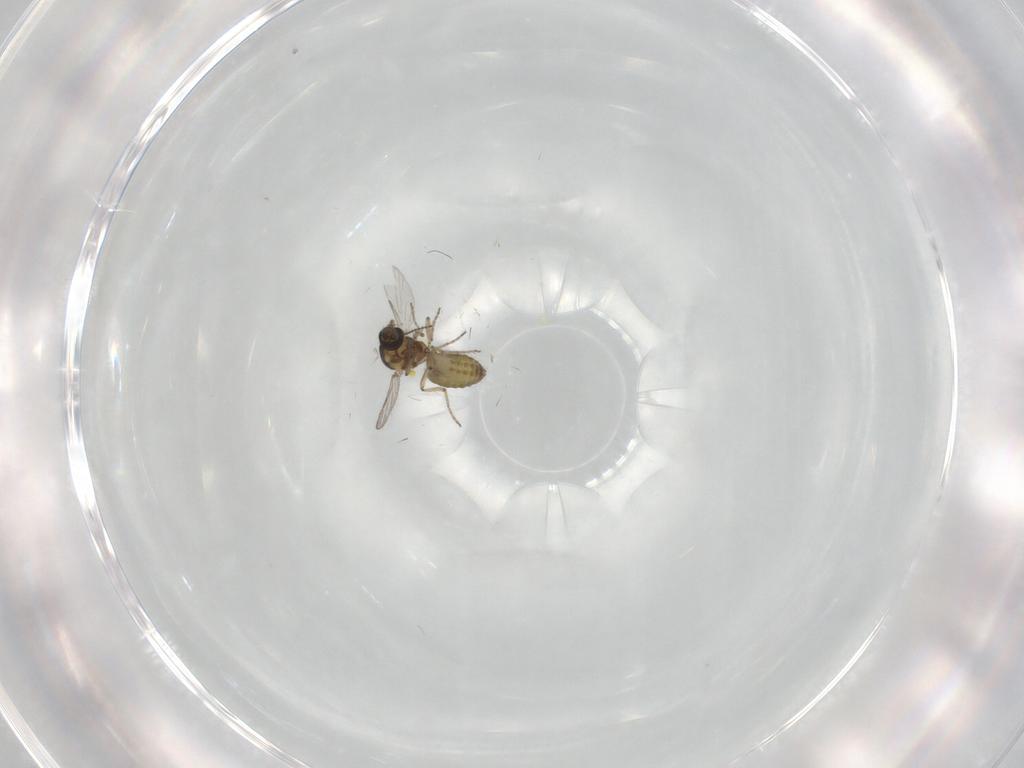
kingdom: Animalia
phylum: Arthropoda
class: Insecta
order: Diptera
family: Ceratopogonidae
